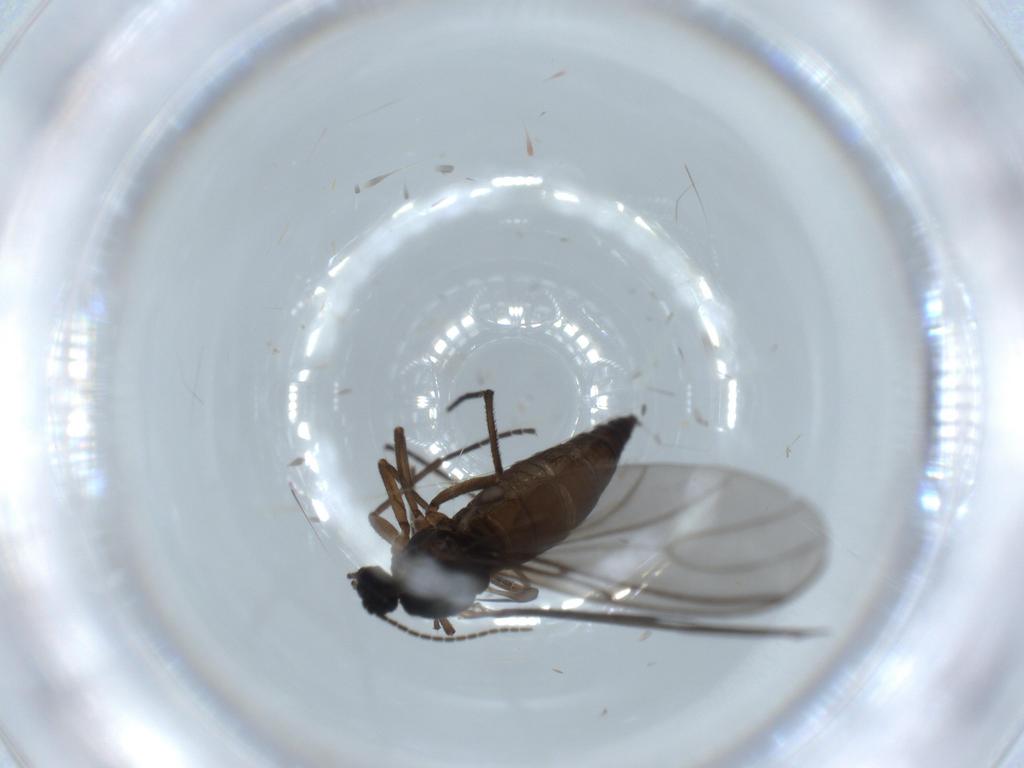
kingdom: Animalia
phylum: Arthropoda
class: Insecta
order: Diptera
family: Sciaridae
